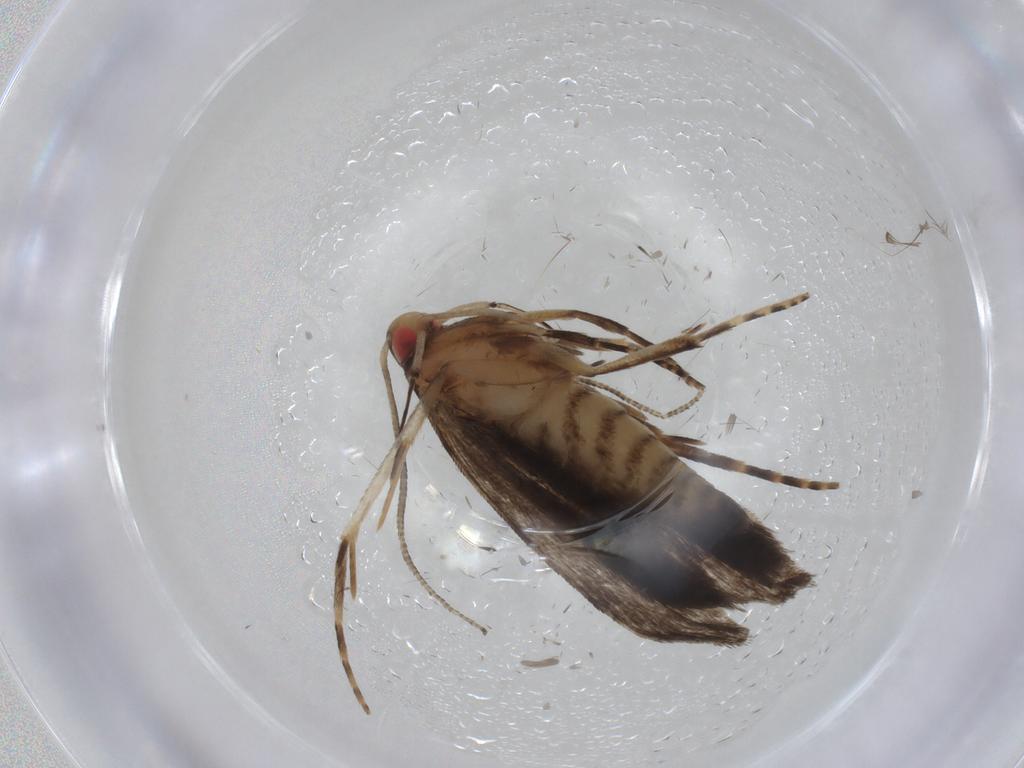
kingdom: Animalia
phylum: Arthropoda
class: Insecta
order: Lepidoptera
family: Gelechiidae
